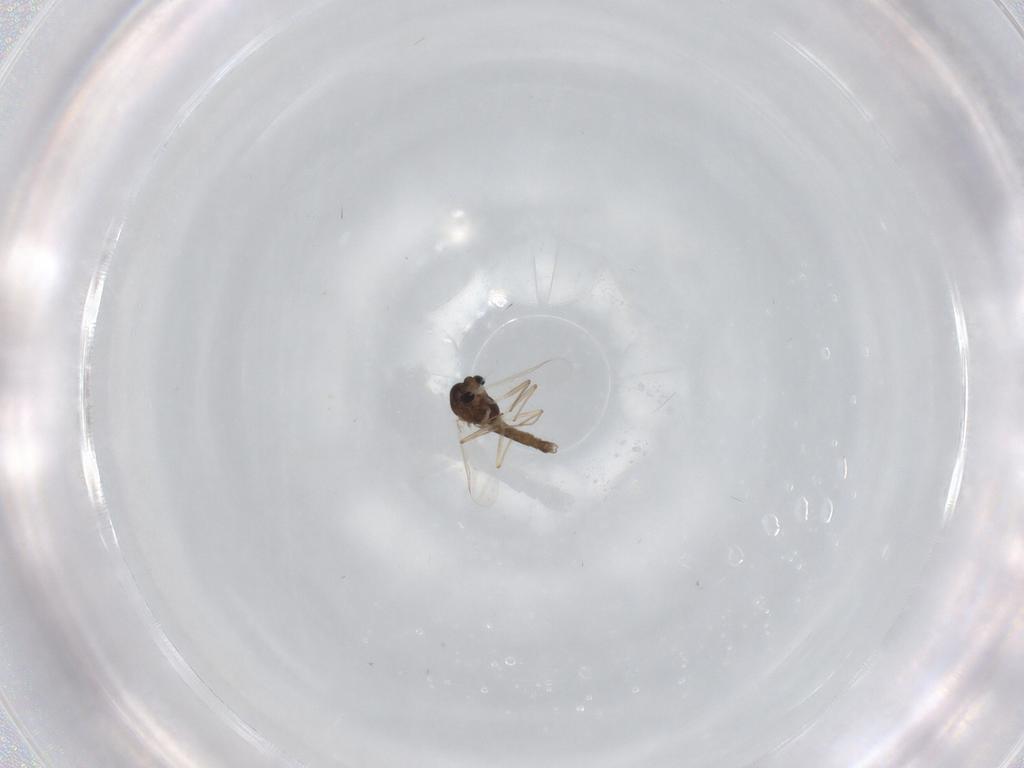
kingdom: Animalia
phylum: Arthropoda
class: Insecta
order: Diptera
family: Chironomidae
